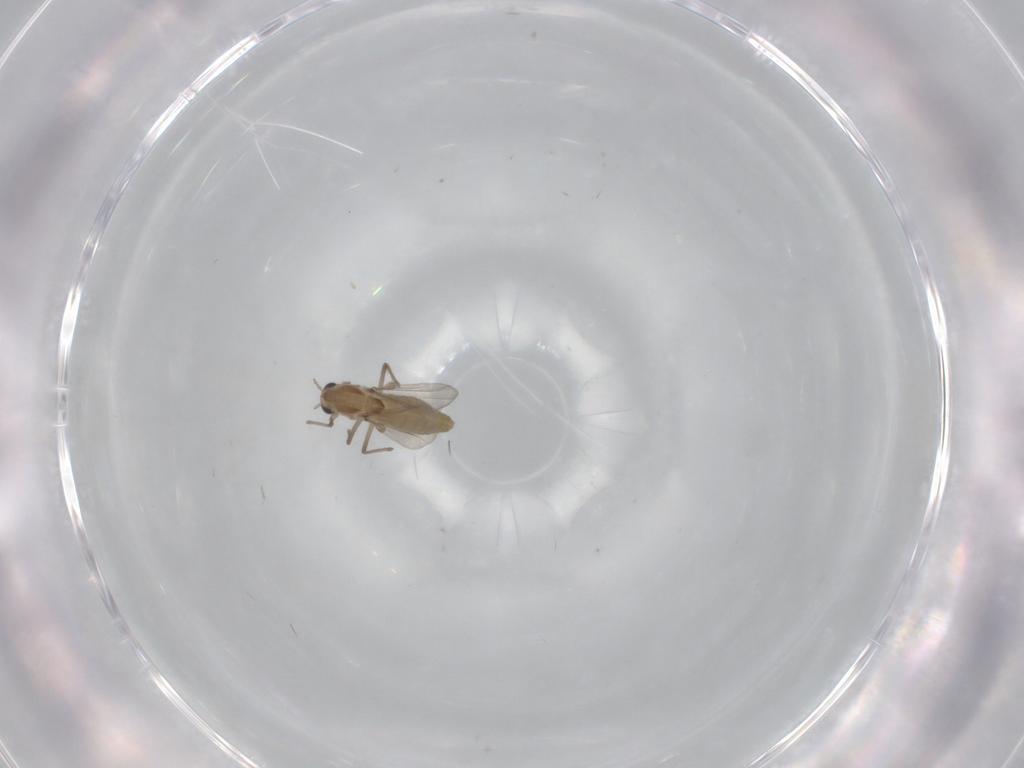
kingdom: Animalia
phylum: Arthropoda
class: Insecta
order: Diptera
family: Chironomidae
